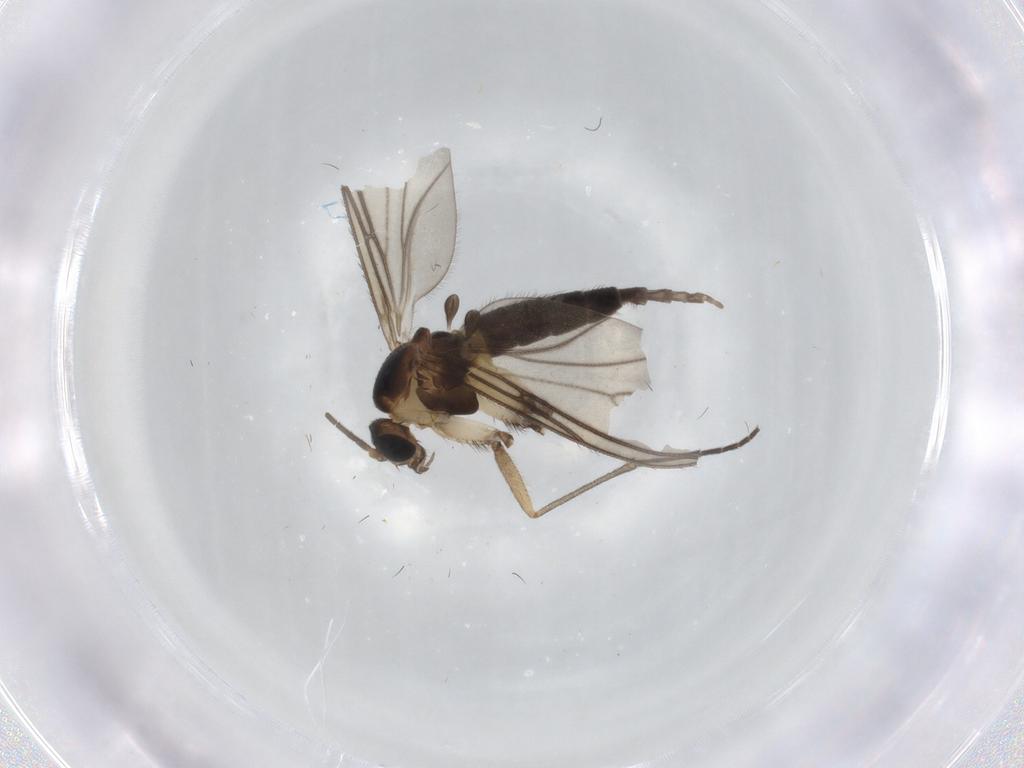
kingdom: Animalia
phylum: Arthropoda
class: Insecta
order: Diptera
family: Sciaridae
